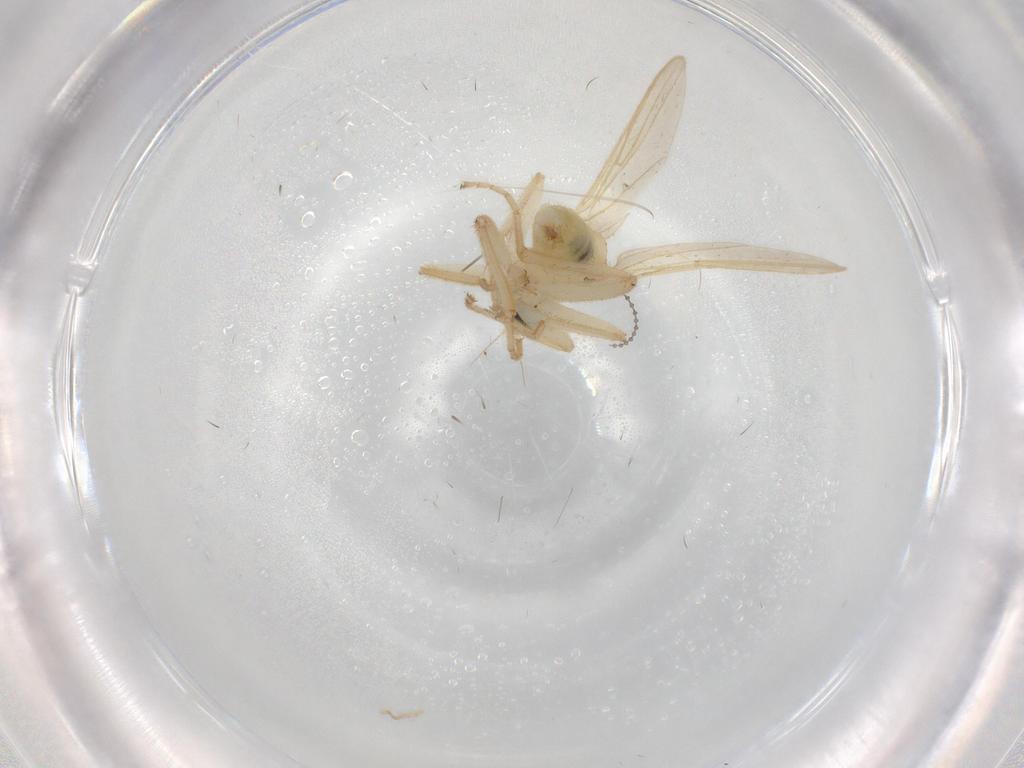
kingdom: Animalia
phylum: Arthropoda
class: Insecta
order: Diptera
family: Hybotidae
